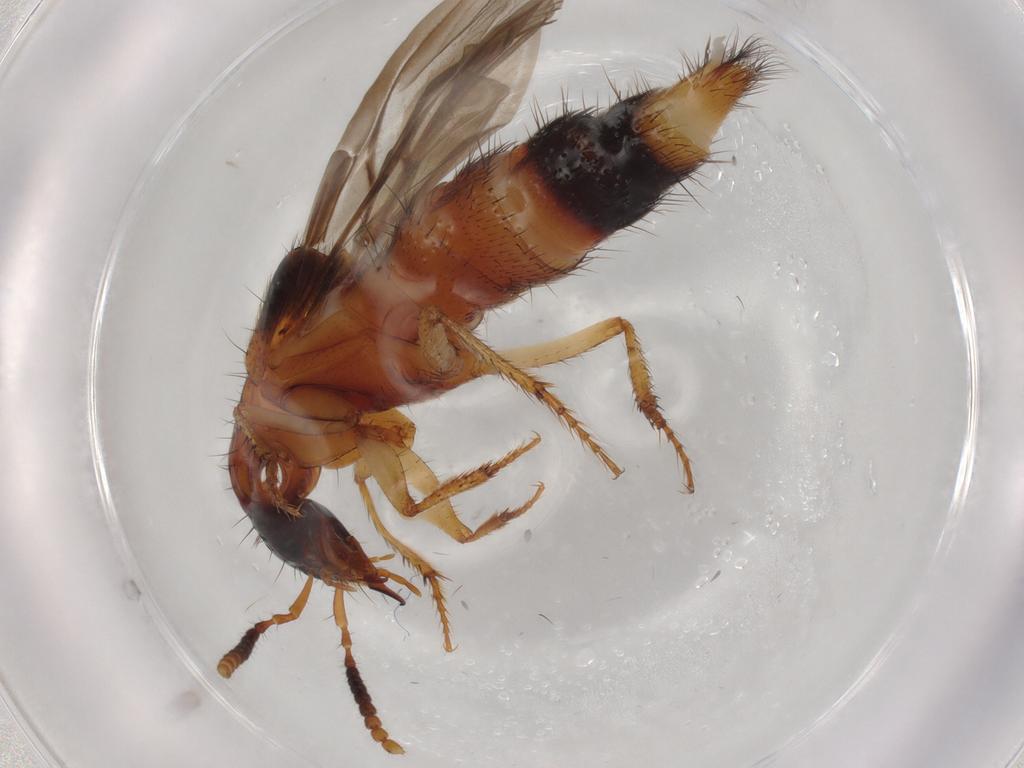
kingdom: Animalia
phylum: Arthropoda
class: Insecta
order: Coleoptera
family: Staphylinidae
